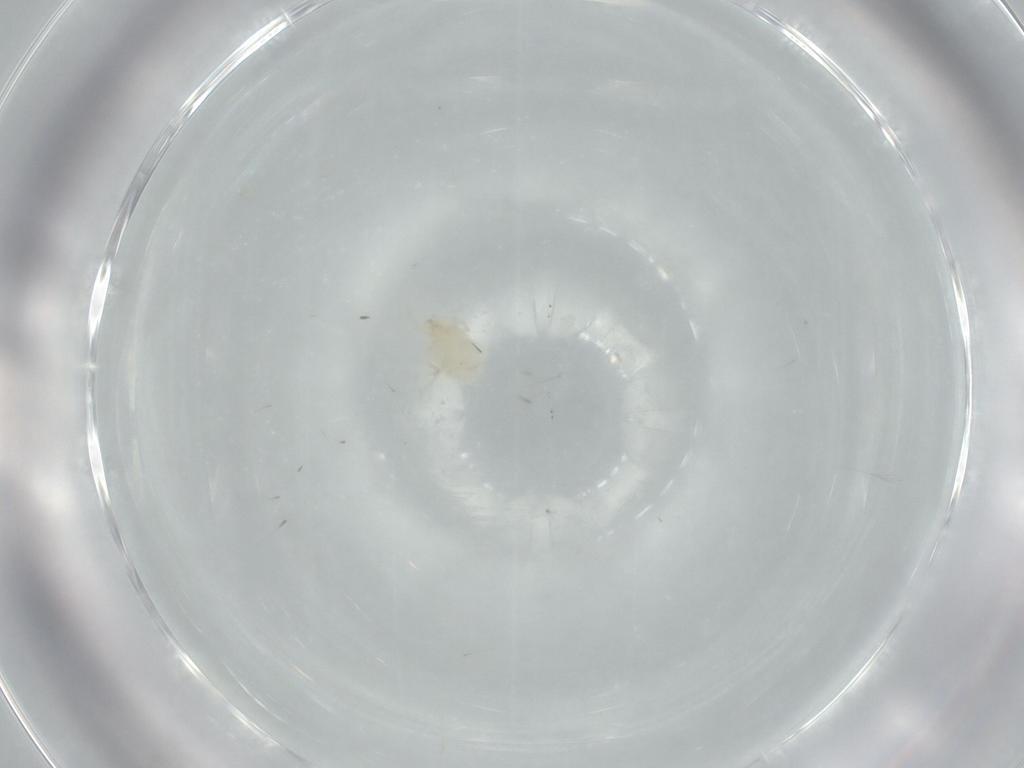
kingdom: Animalia
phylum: Arthropoda
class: Arachnida
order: Trombidiformes
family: Erythraeidae
